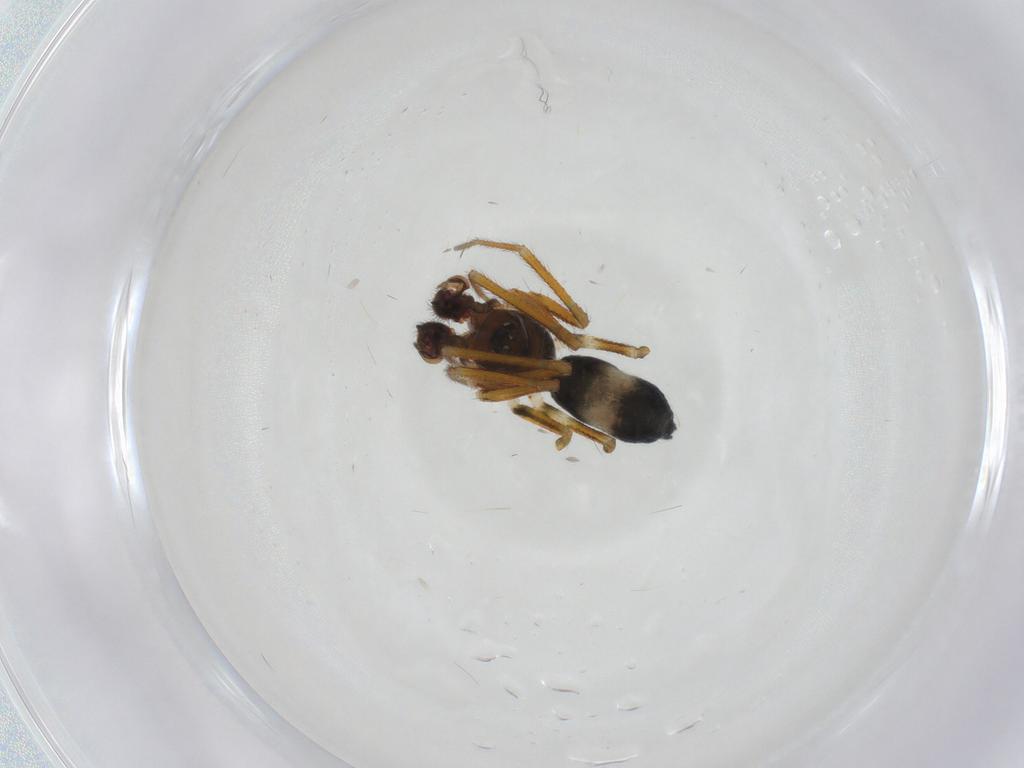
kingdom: Animalia
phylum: Arthropoda
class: Arachnida
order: Araneae
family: Linyphiidae
